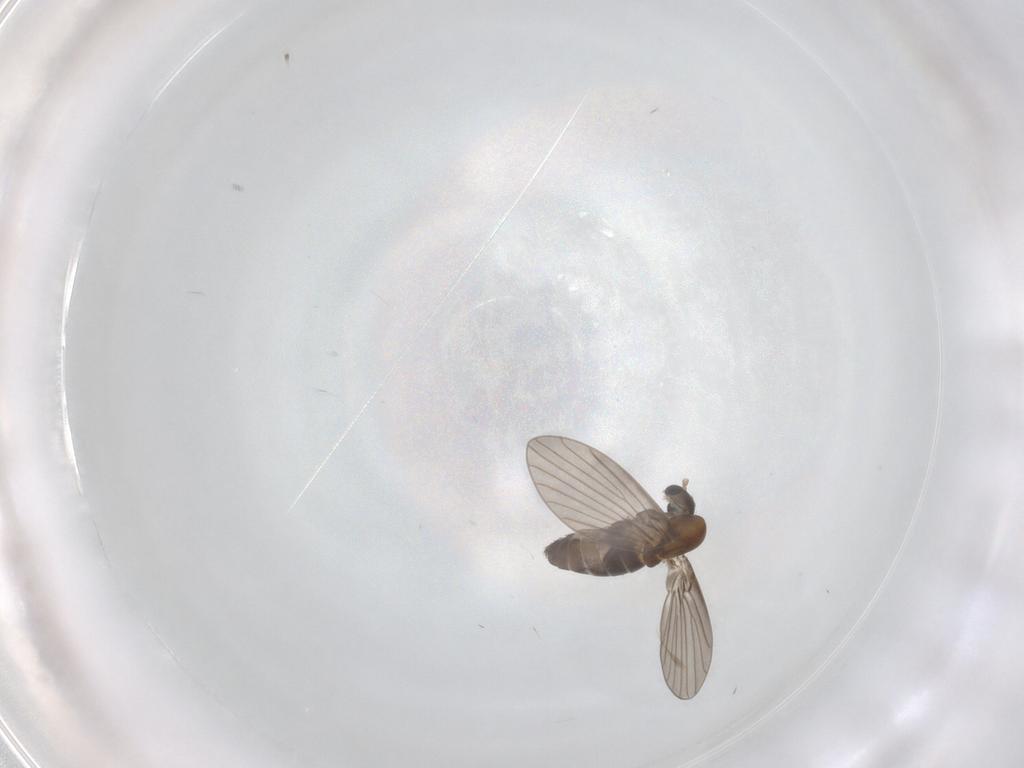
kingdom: Animalia
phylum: Arthropoda
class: Insecta
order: Diptera
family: Psychodidae
